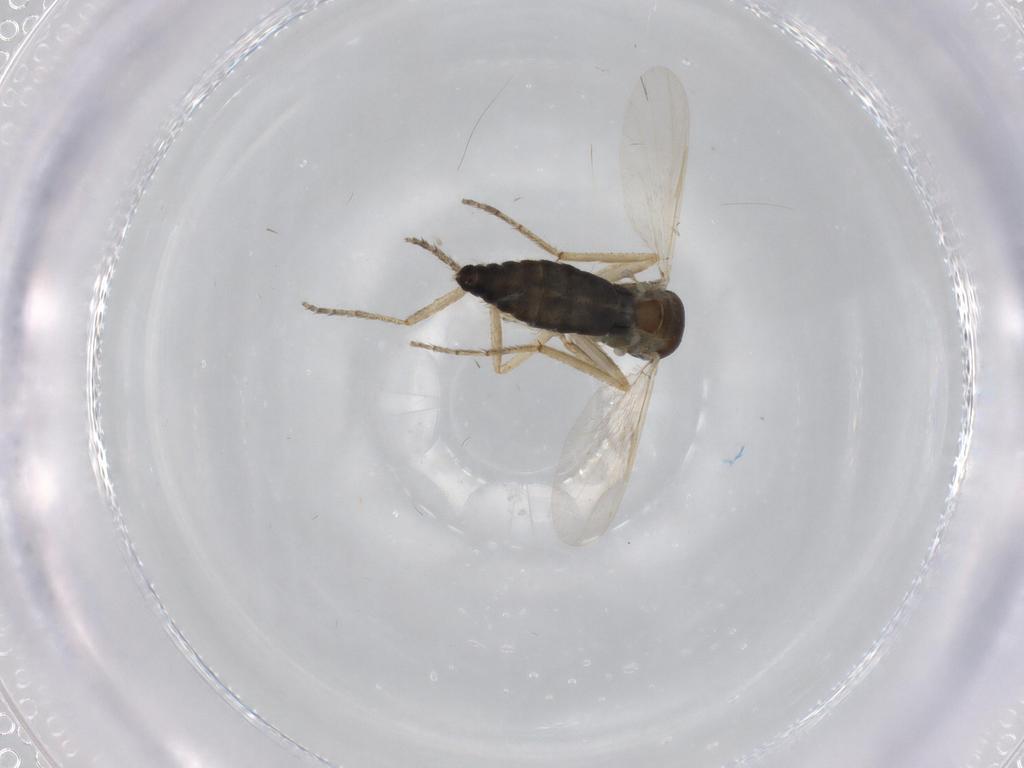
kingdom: Animalia
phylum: Arthropoda
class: Insecta
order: Diptera
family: Ceratopogonidae
